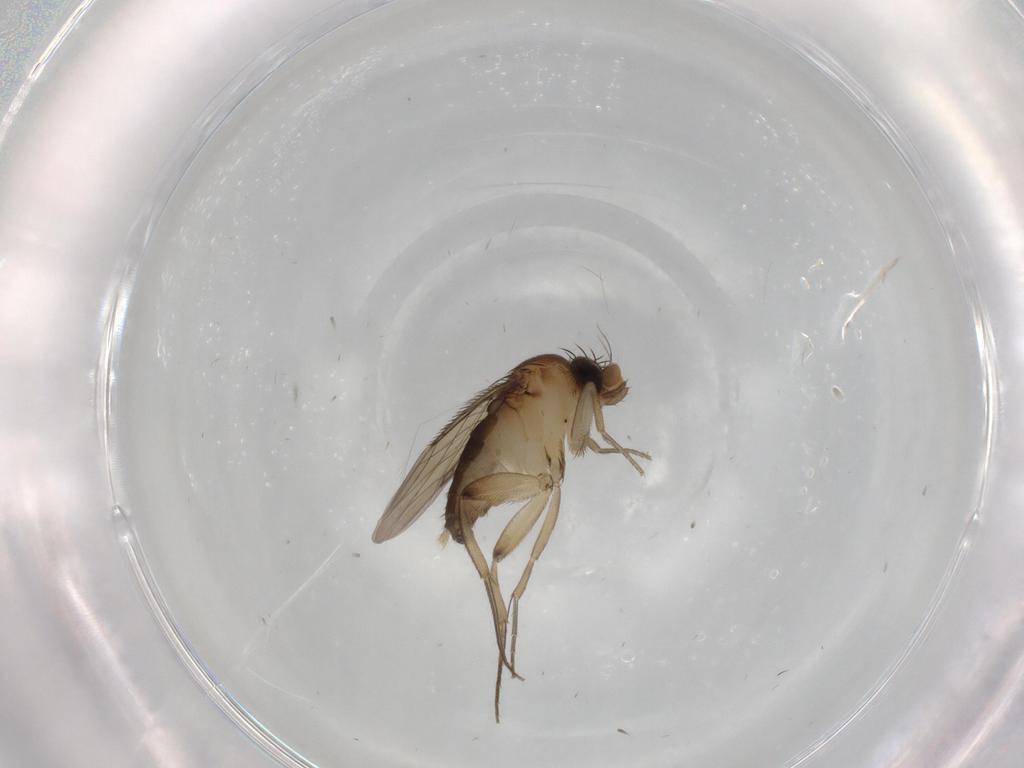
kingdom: Animalia
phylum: Arthropoda
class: Insecta
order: Diptera
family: Phoridae
